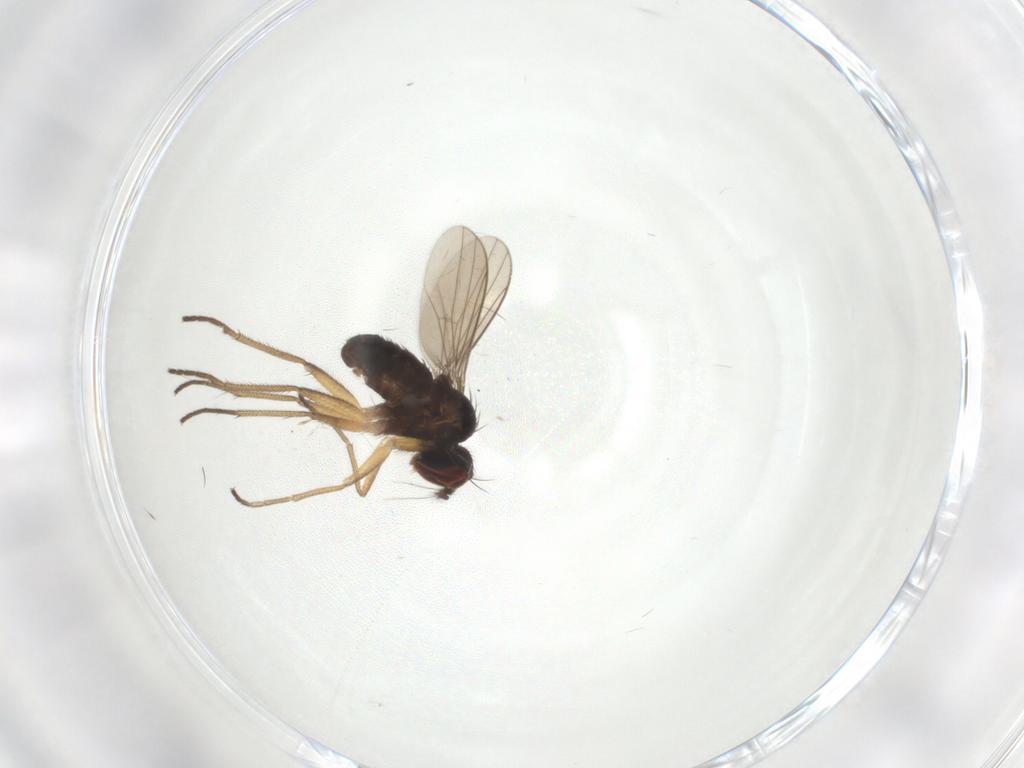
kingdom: Animalia
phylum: Arthropoda
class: Insecta
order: Diptera
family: Dolichopodidae
